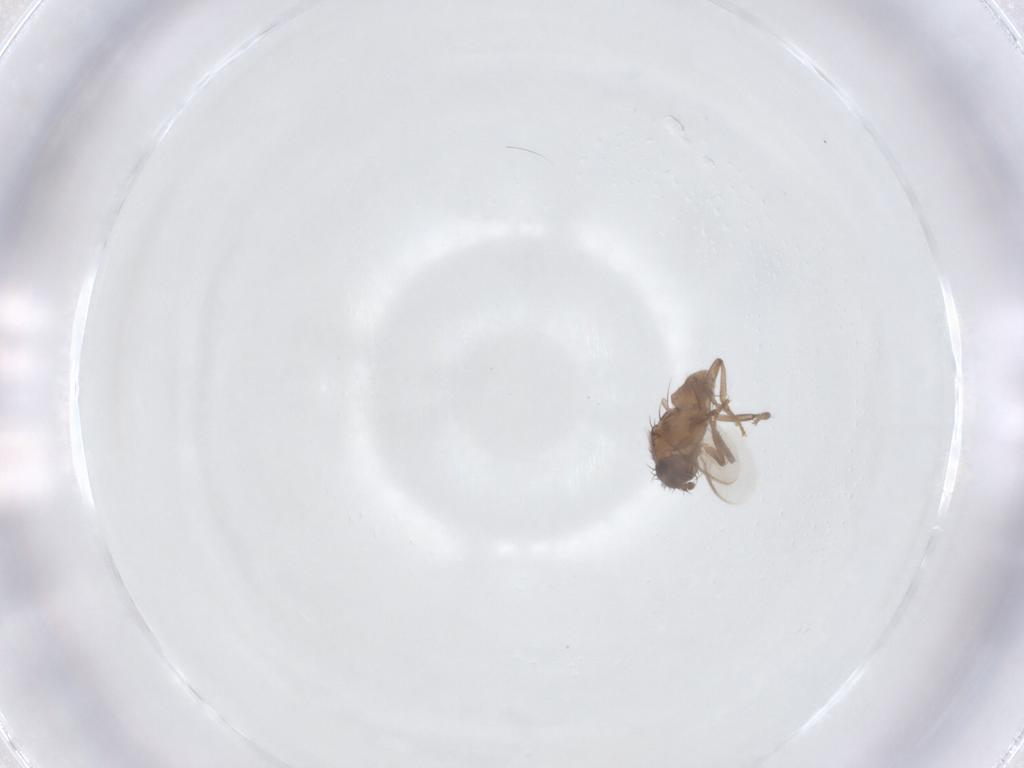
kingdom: Animalia
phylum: Arthropoda
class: Insecta
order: Diptera
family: Sphaeroceridae
